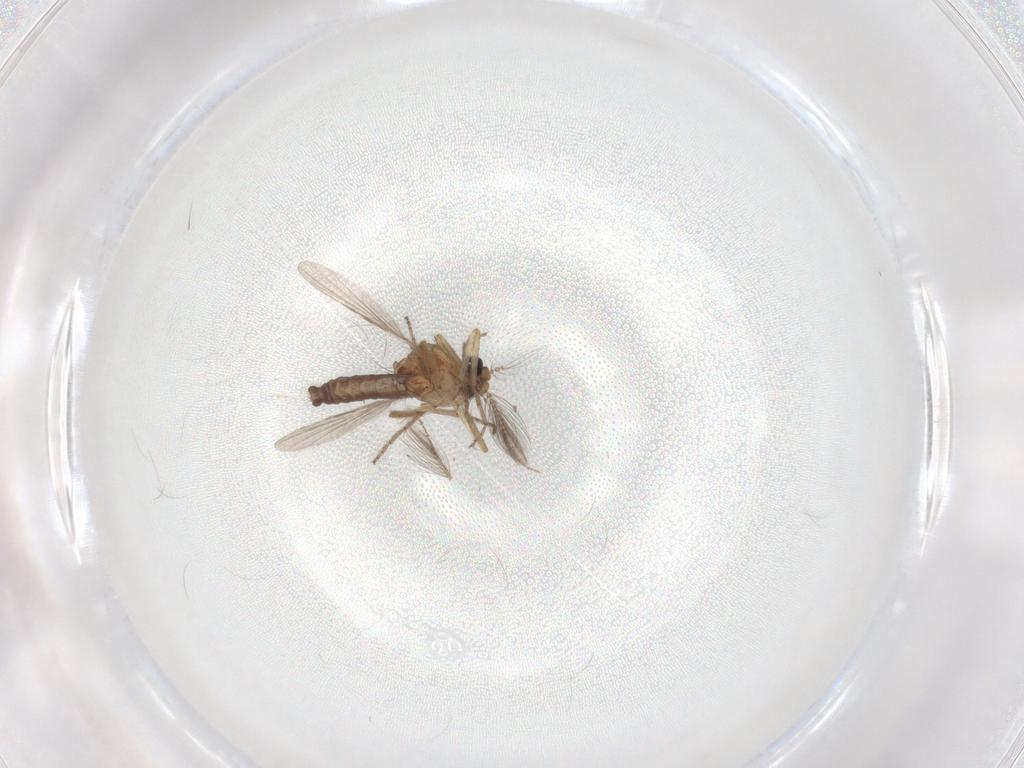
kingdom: Animalia
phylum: Arthropoda
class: Insecta
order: Diptera
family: Ceratopogonidae
